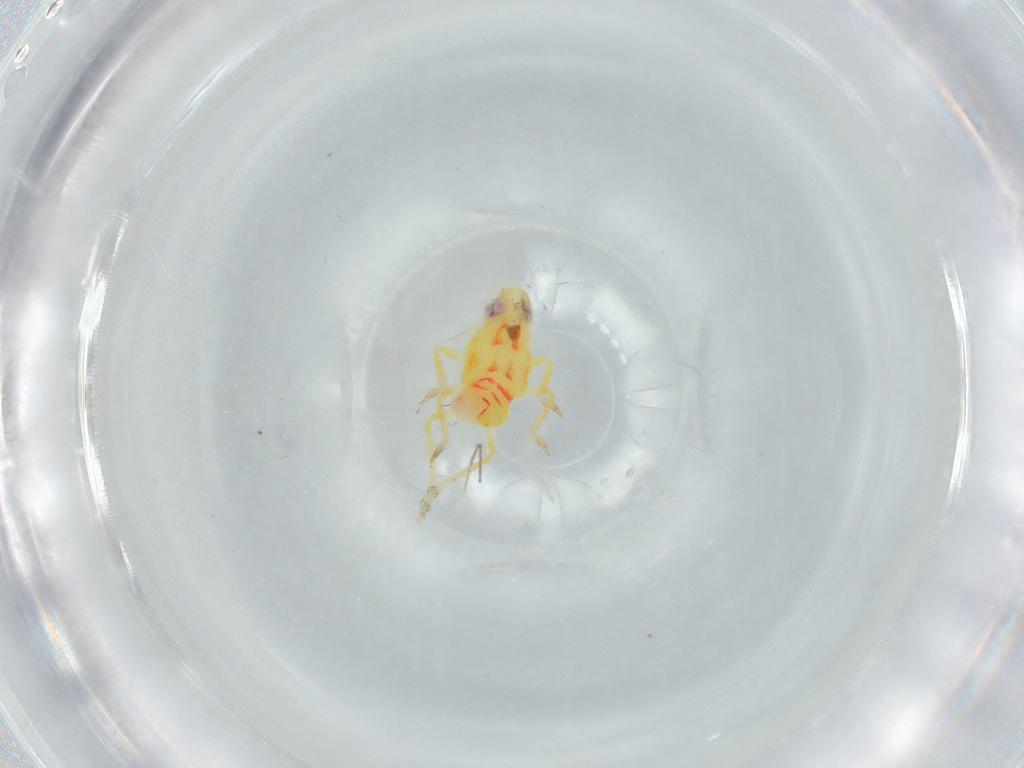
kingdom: Animalia
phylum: Arthropoda
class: Insecta
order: Hemiptera
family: Tropiduchidae
